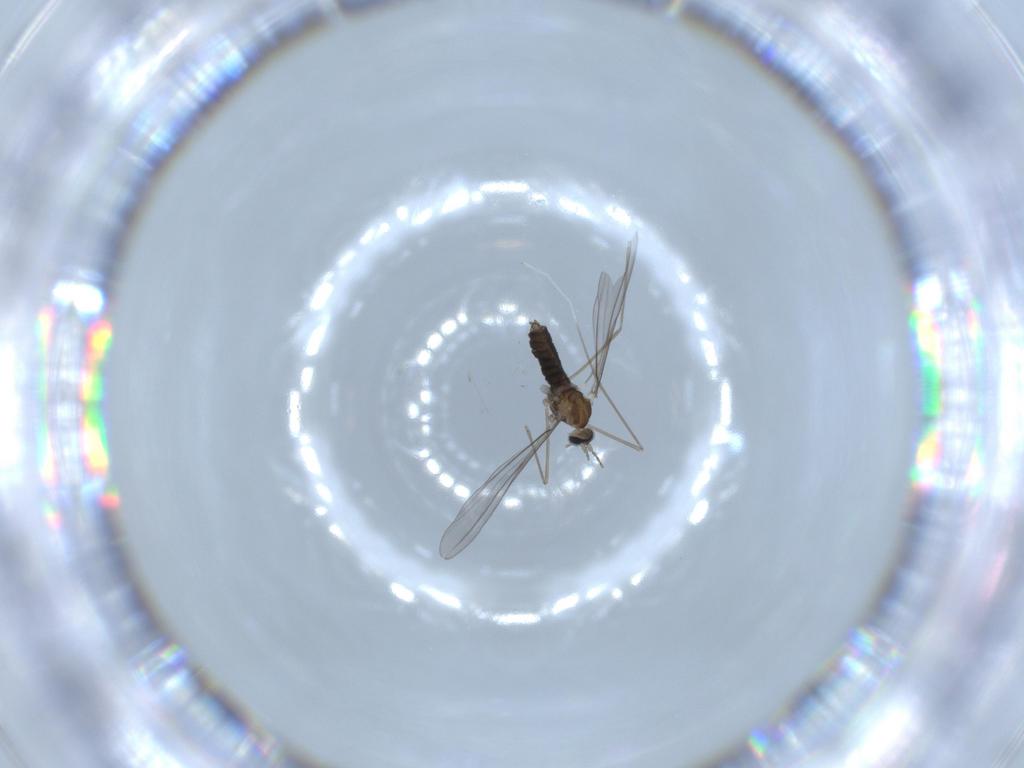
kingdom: Animalia
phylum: Arthropoda
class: Insecta
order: Diptera
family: Cecidomyiidae
